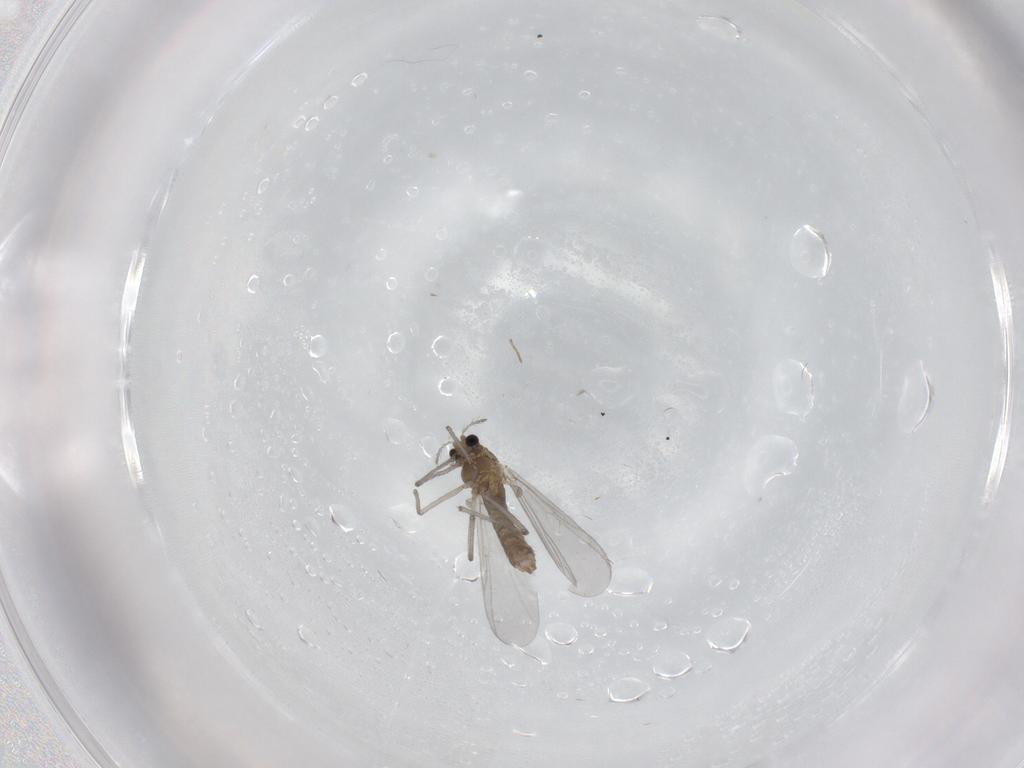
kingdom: Animalia
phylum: Arthropoda
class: Insecta
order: Diptera
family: Chironomidae
